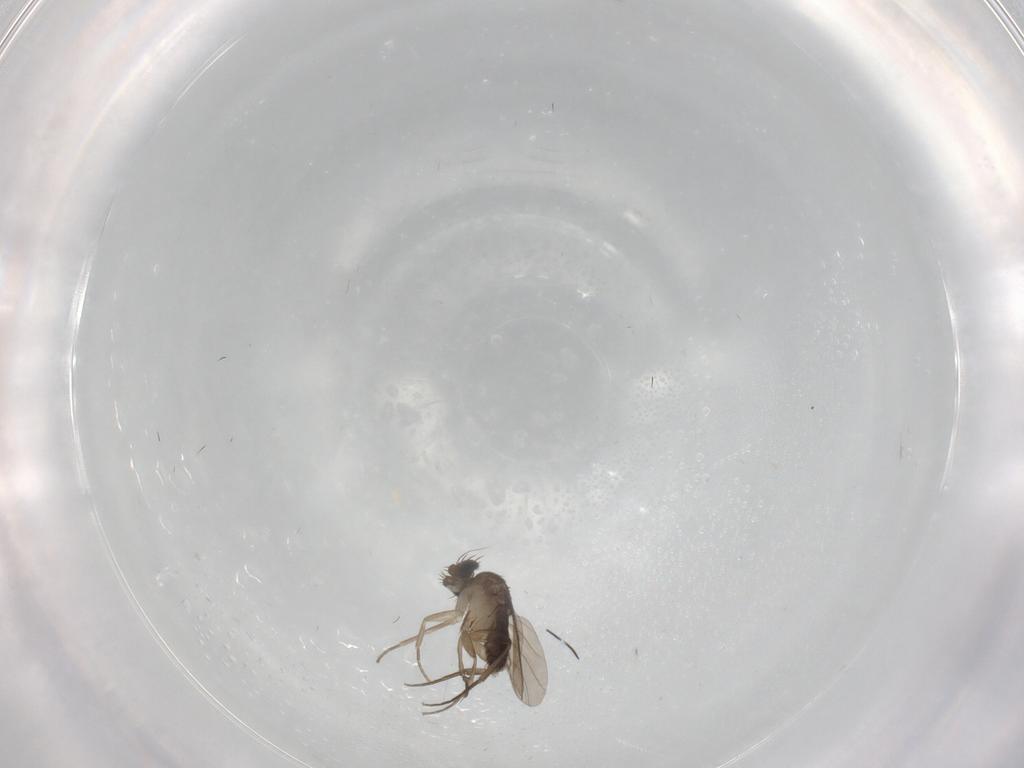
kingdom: Animalia
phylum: Arthropoda
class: Insecta
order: Diptera
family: Phoridae
